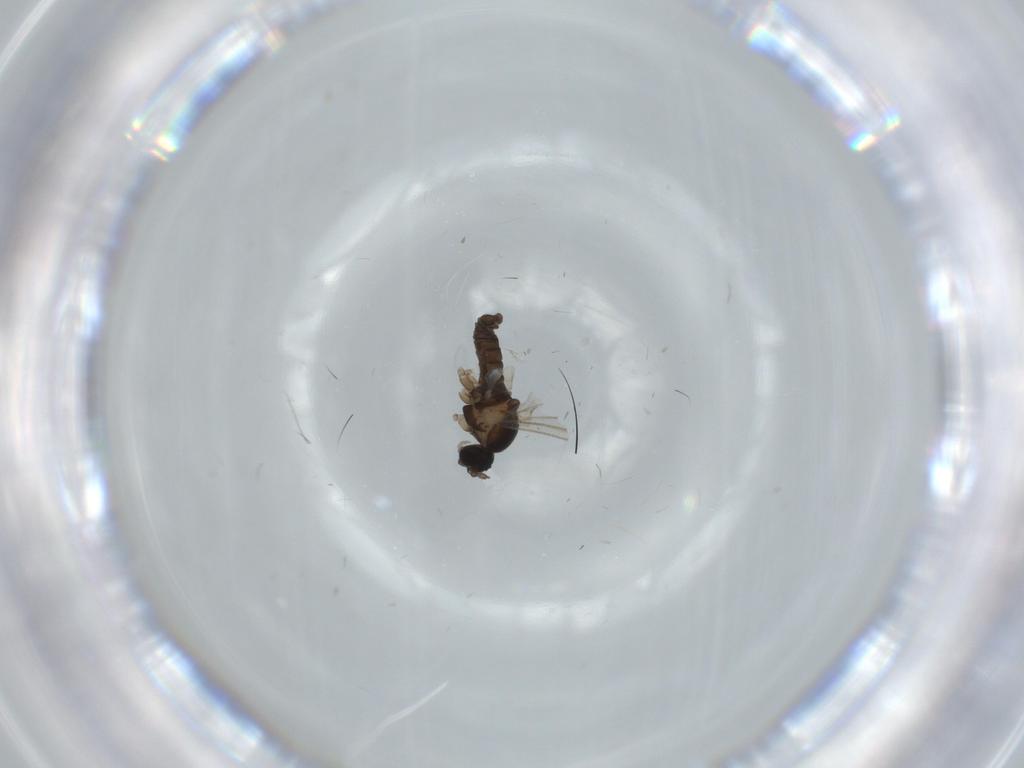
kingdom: Animalia
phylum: Arthropoda
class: Insecta
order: Diptera
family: Cecidomyiidae
